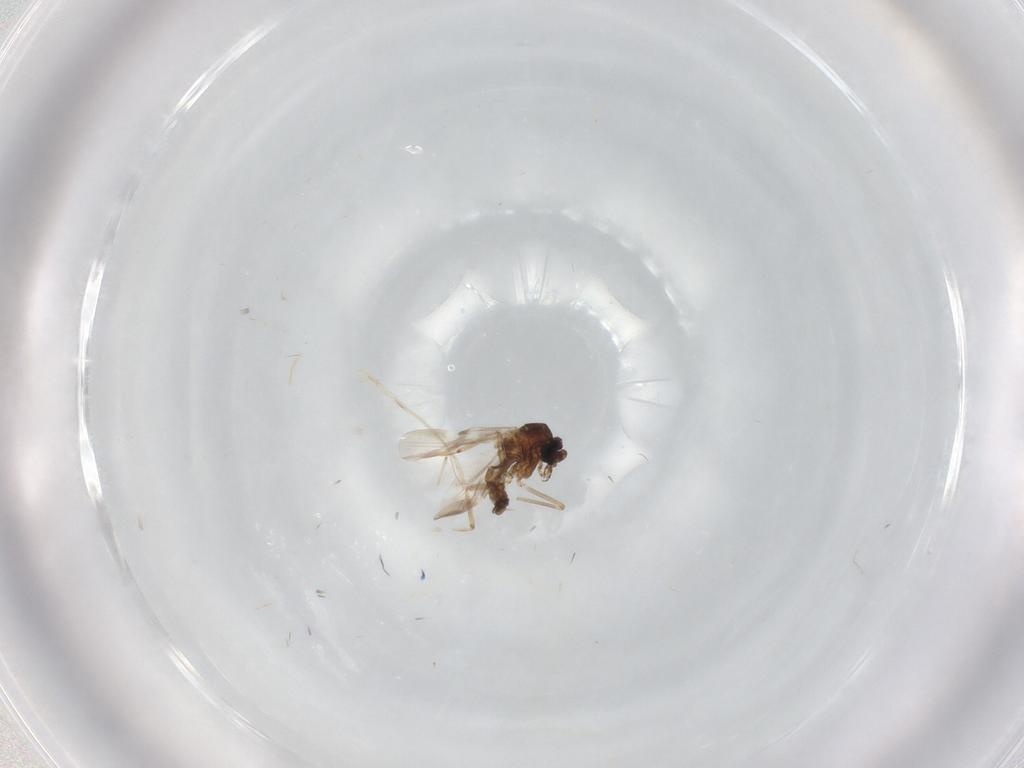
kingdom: Animalia
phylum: Arthropoda
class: Insecta
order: Diptera
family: Ceratopogonidae
